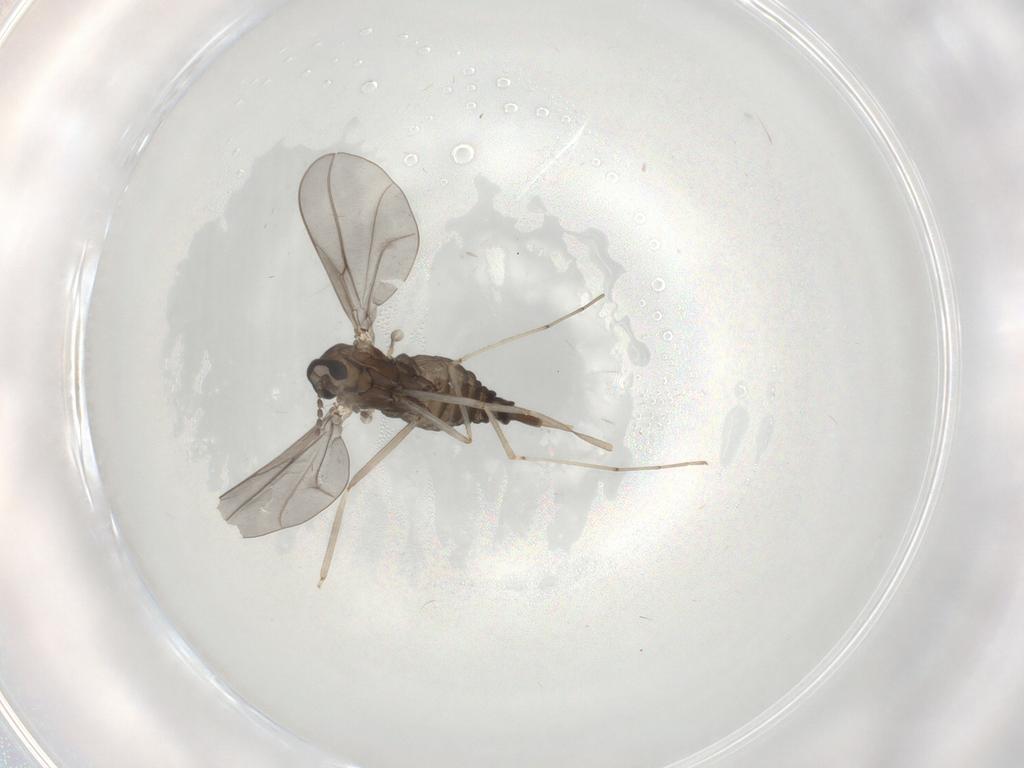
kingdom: Animalia
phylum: Arthropoda
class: Insecta
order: Diptera
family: Cecidomyiidae
